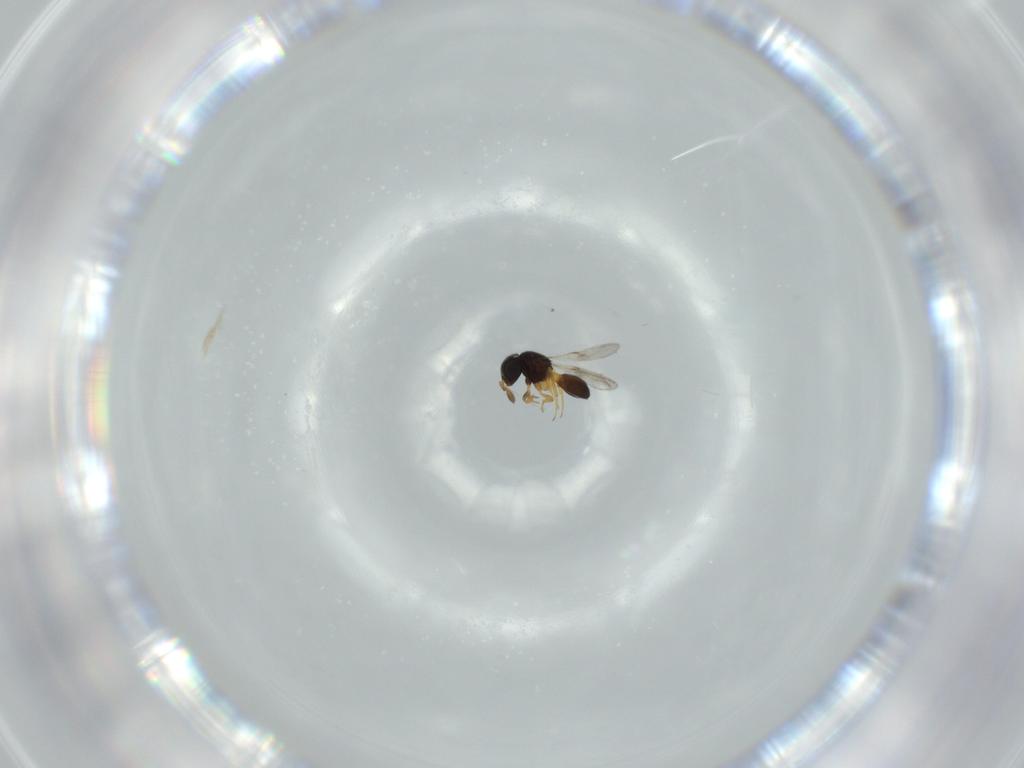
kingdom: Animalia
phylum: Arthropoda
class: Insecta
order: Hymenoptera
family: Scelionidae
